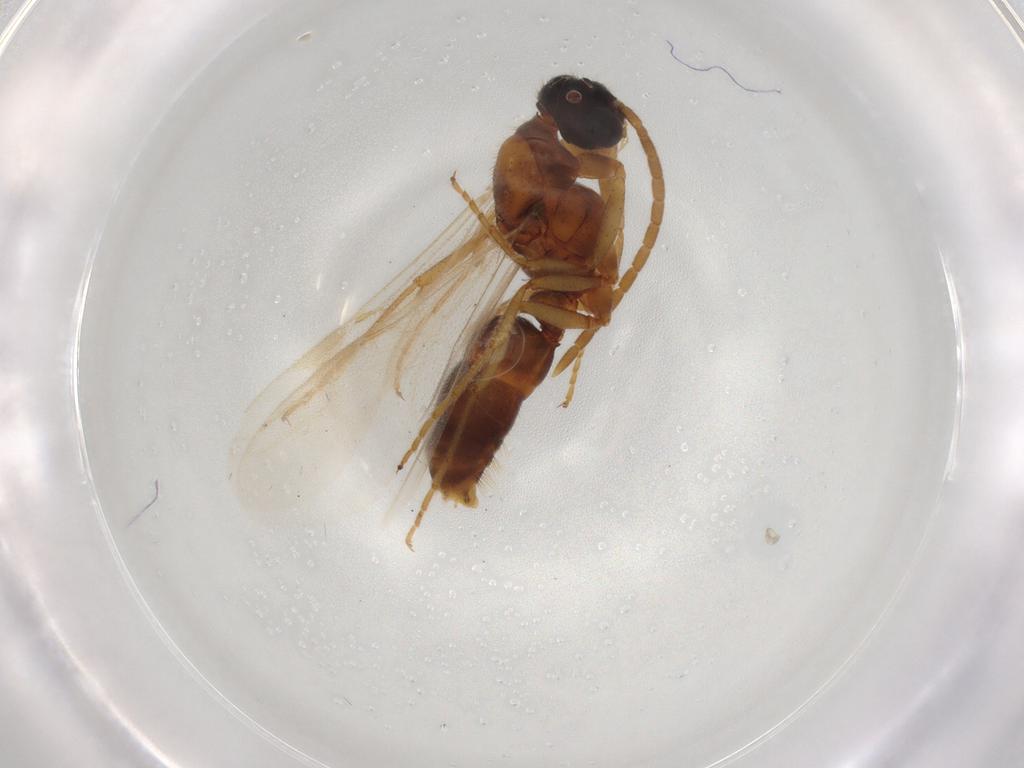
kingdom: Animalia
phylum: Arthropoda
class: Insecta
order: Hymenoptera
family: Formicidae
